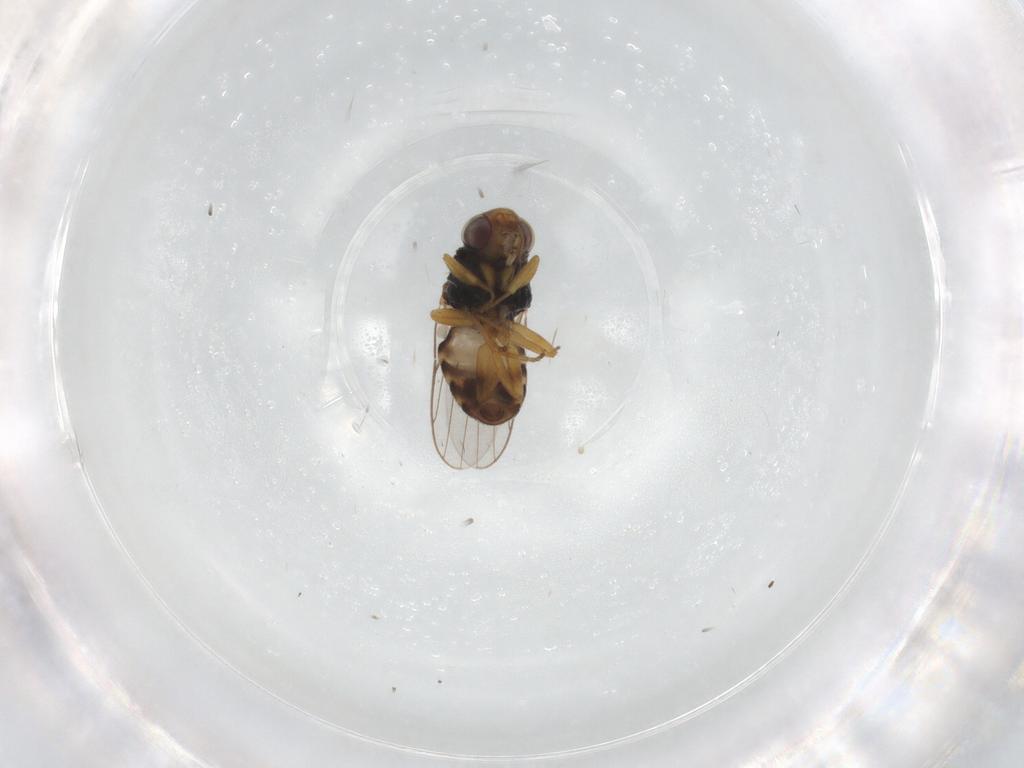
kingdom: Animalia
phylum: Arthropoda
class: Insecta
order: Diptera
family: Chloropidae
